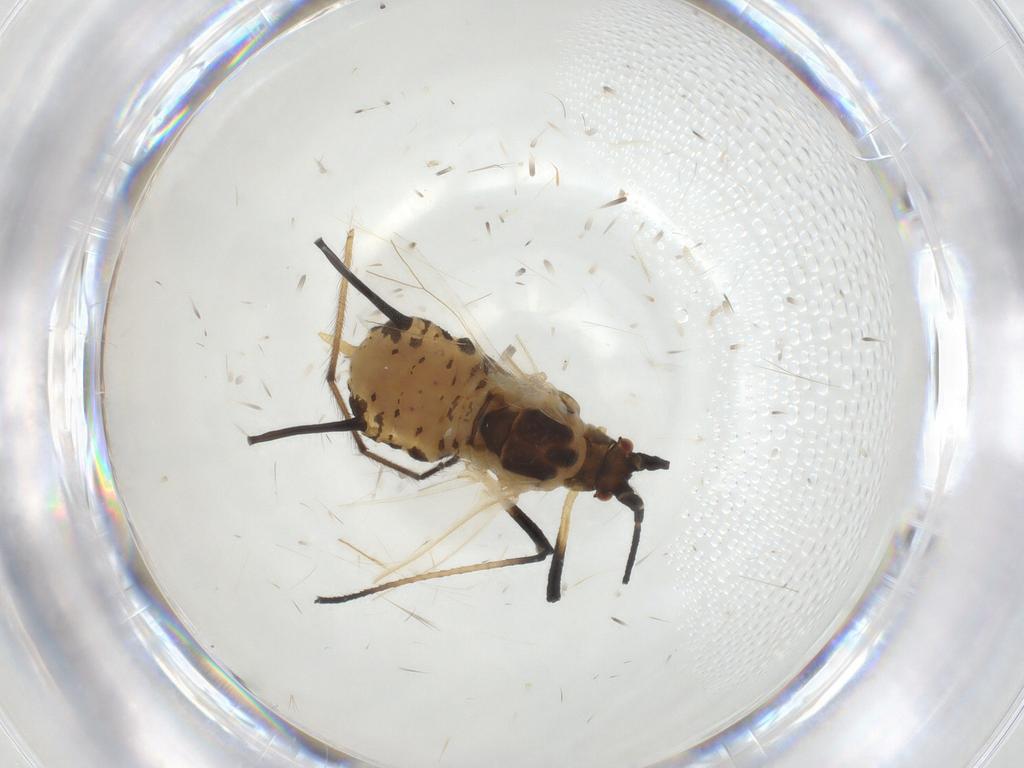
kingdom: Animalia
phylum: Arthropoda
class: Insecta
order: Hemiptera
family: Aphididae
